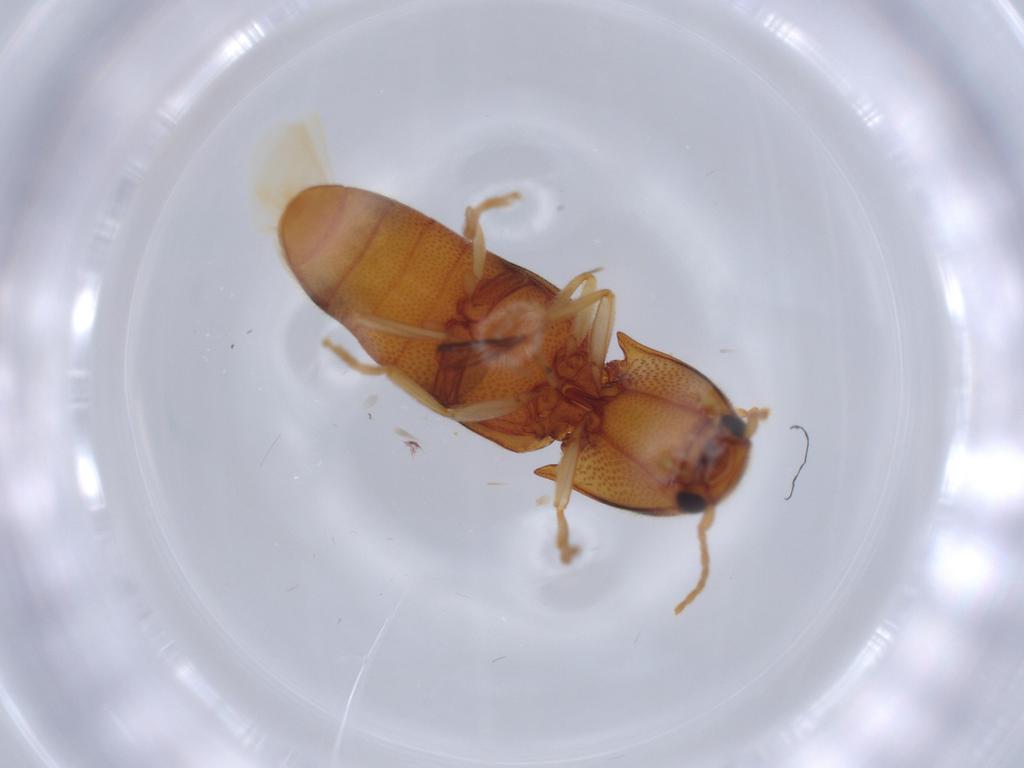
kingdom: Animalia
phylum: Arthropoda
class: Insecta
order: Coleoptera
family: Elateridae
